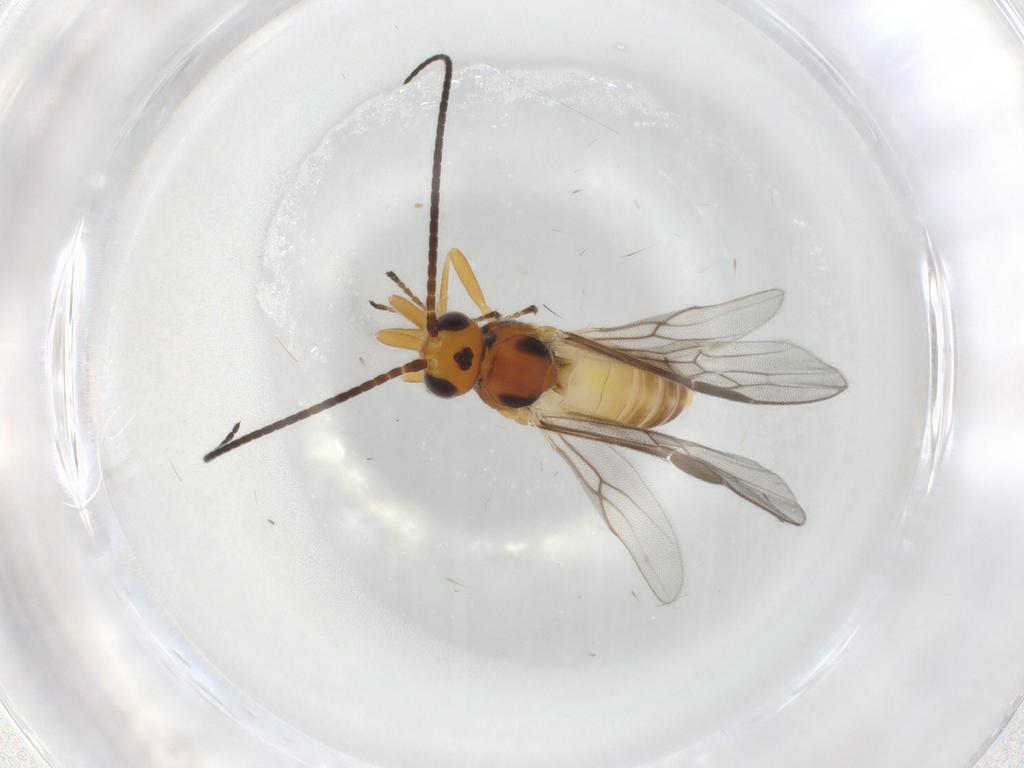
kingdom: Animalia
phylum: Arthropoda
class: Insecta
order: Hymenoptera
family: Braconidae
